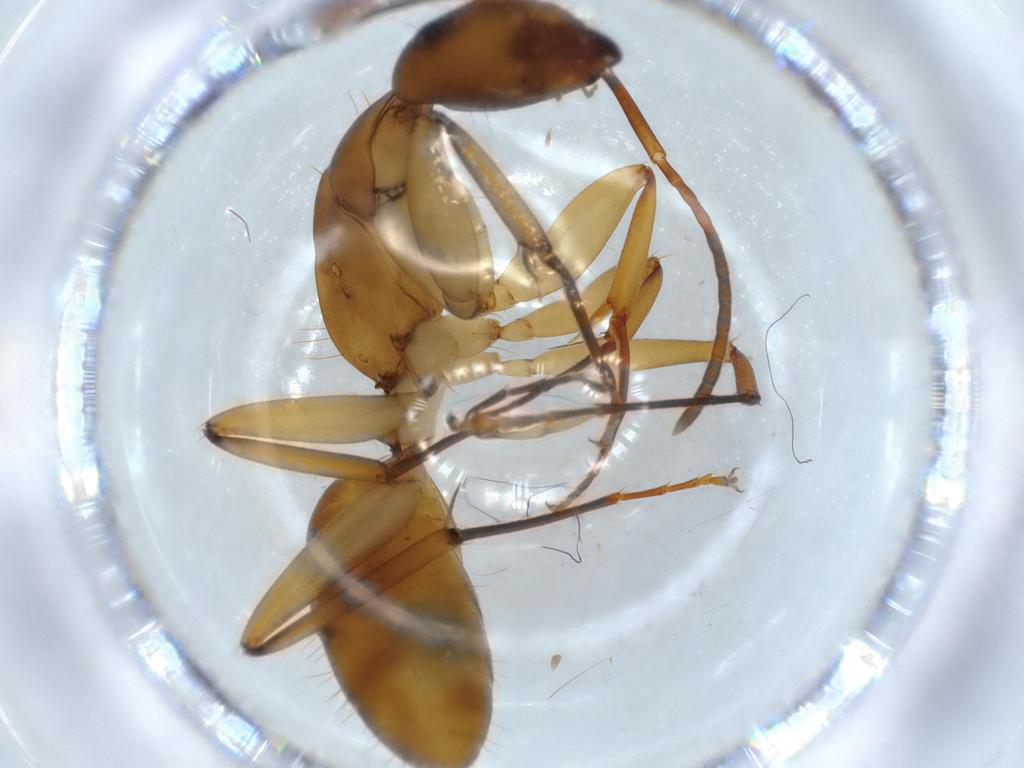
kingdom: Animalia
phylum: Arthropoda
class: Insecta
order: Hymenoptera
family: Formicidae
